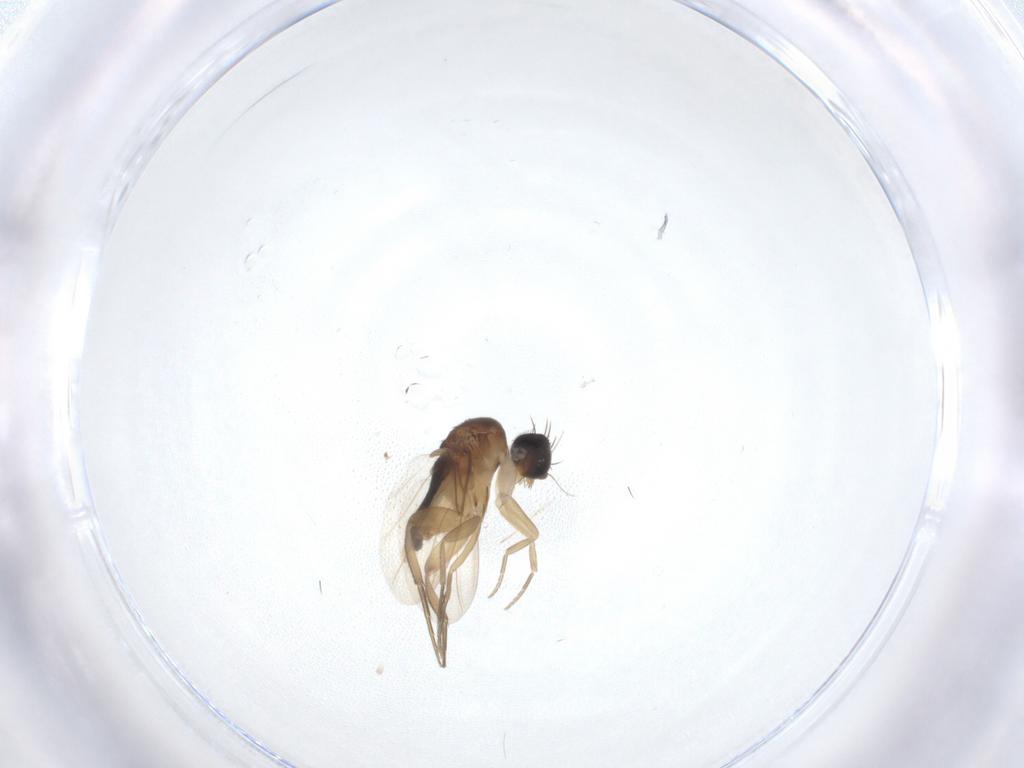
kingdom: Animalia
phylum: Arthropoda
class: Insecta
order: Diptera
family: Phoridae
